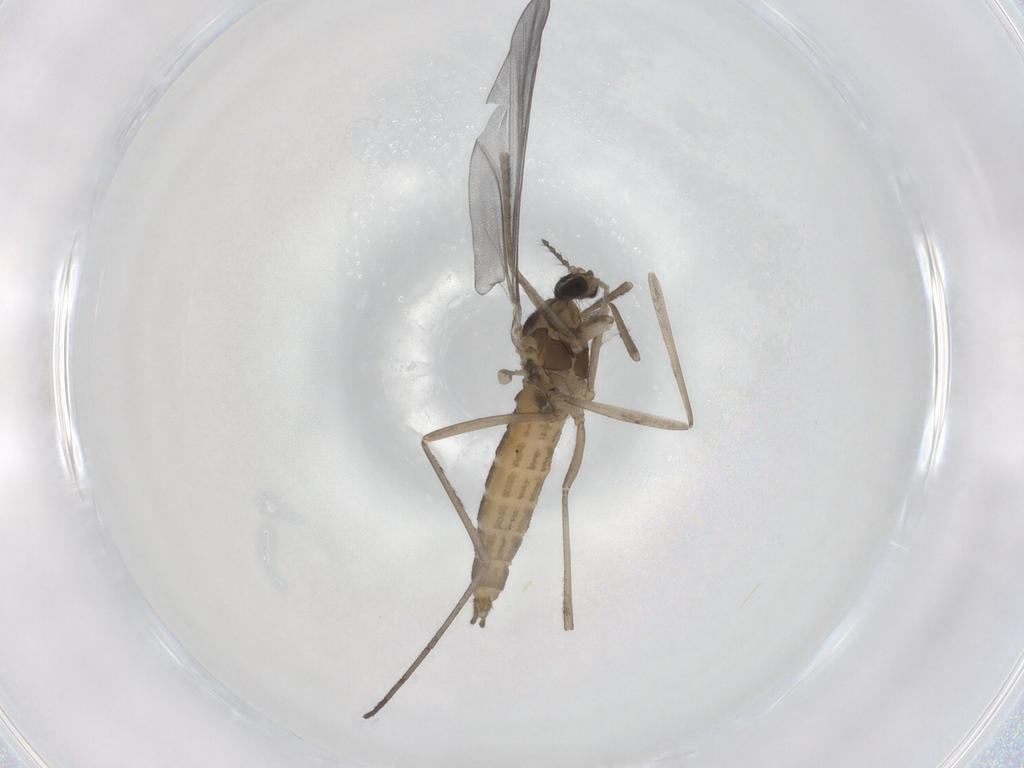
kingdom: Animalia
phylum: Arthropoda
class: Insecta
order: Diptera
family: Cecidomyiidae
